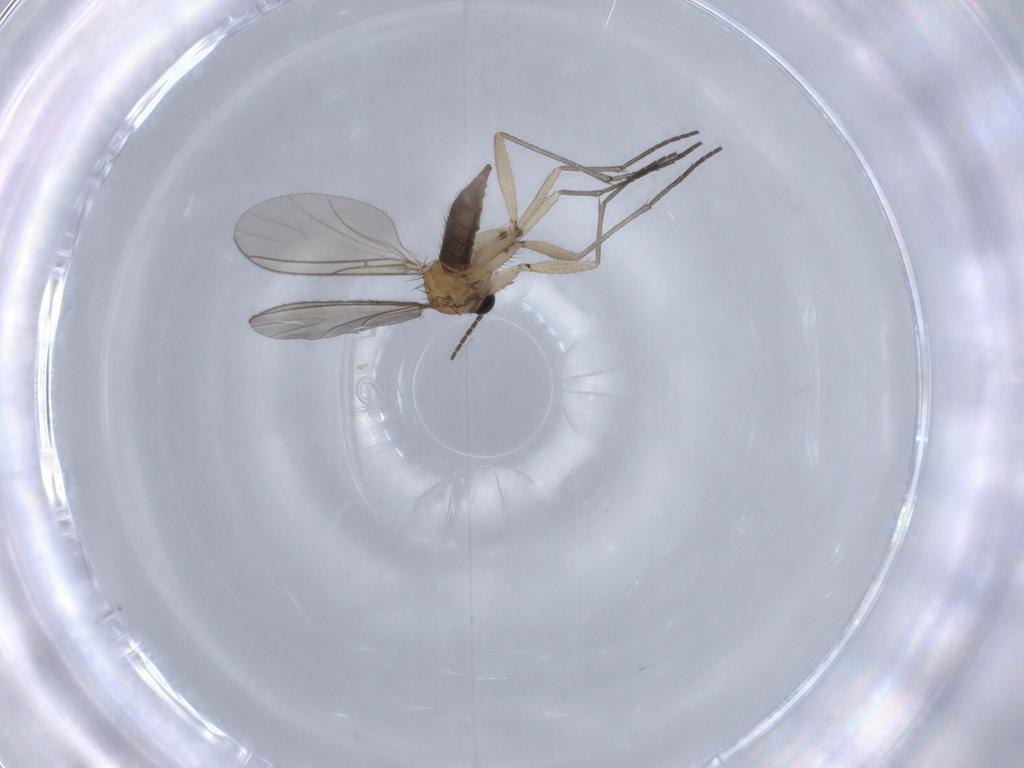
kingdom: Animalia
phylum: Arthropoda
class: Insecta
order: Diptera
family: Sciaridae
